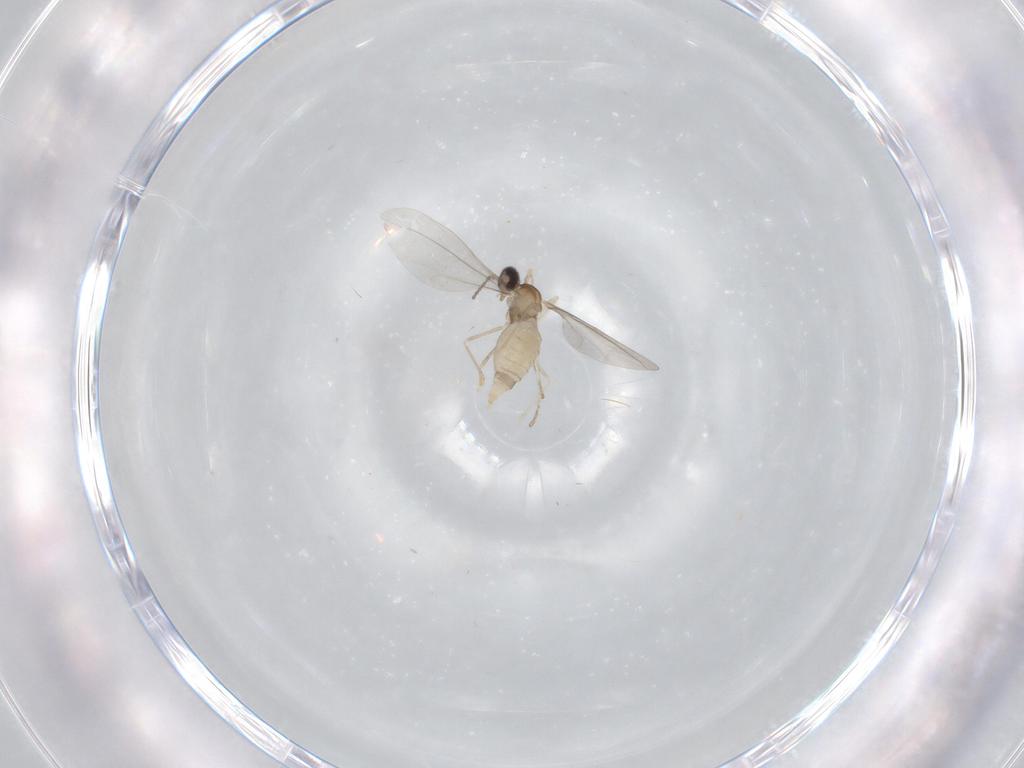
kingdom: Animalia
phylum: Arthropoda
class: Insecta
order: Diptera
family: Cecidomyiidae
